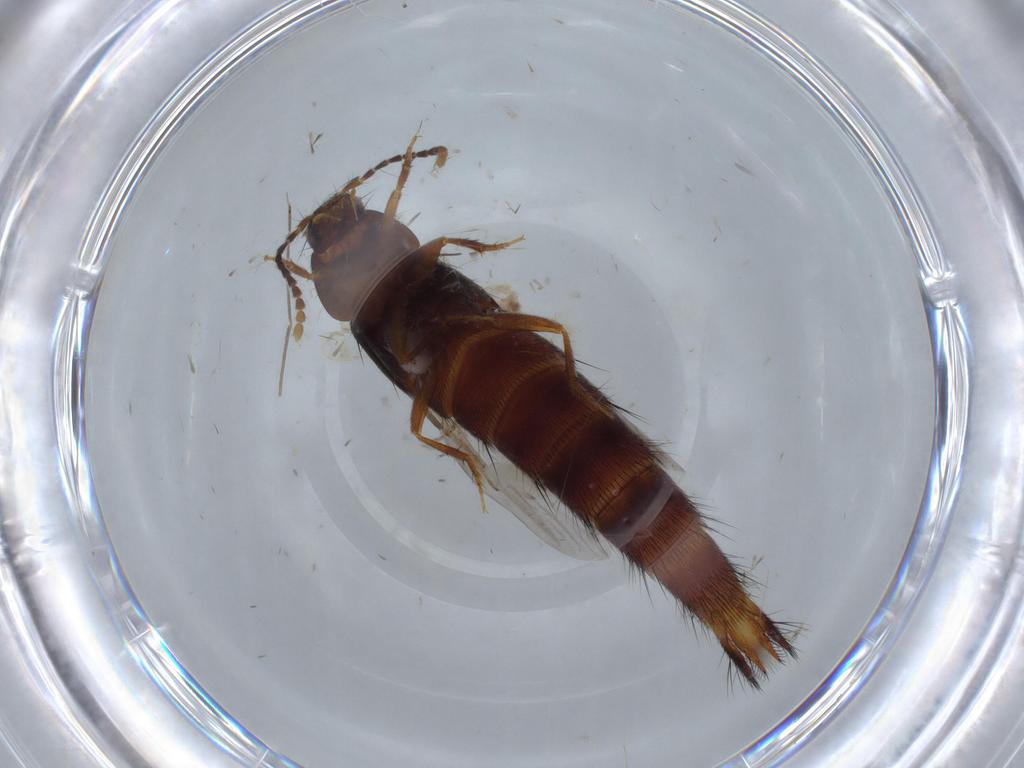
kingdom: Animalia
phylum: Arthropoda
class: Insecta
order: Coleoptera
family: Staphylinidae
